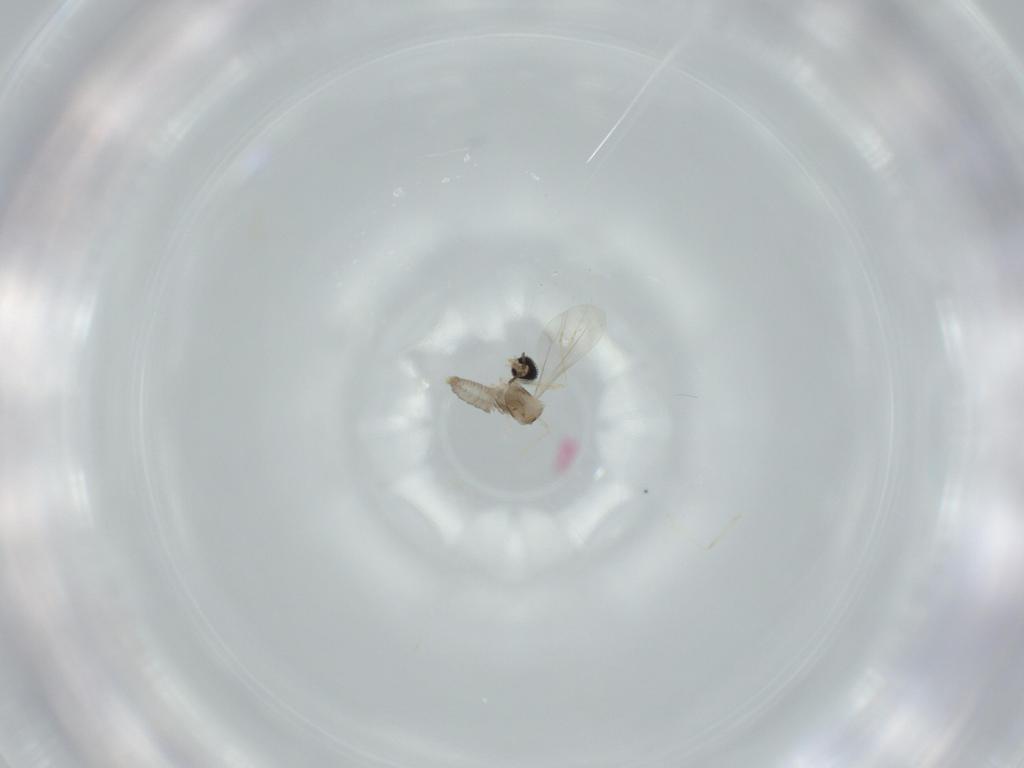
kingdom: Animalia
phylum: Arthropoda
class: Insecta
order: Diptera
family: Cecidomyiidae
